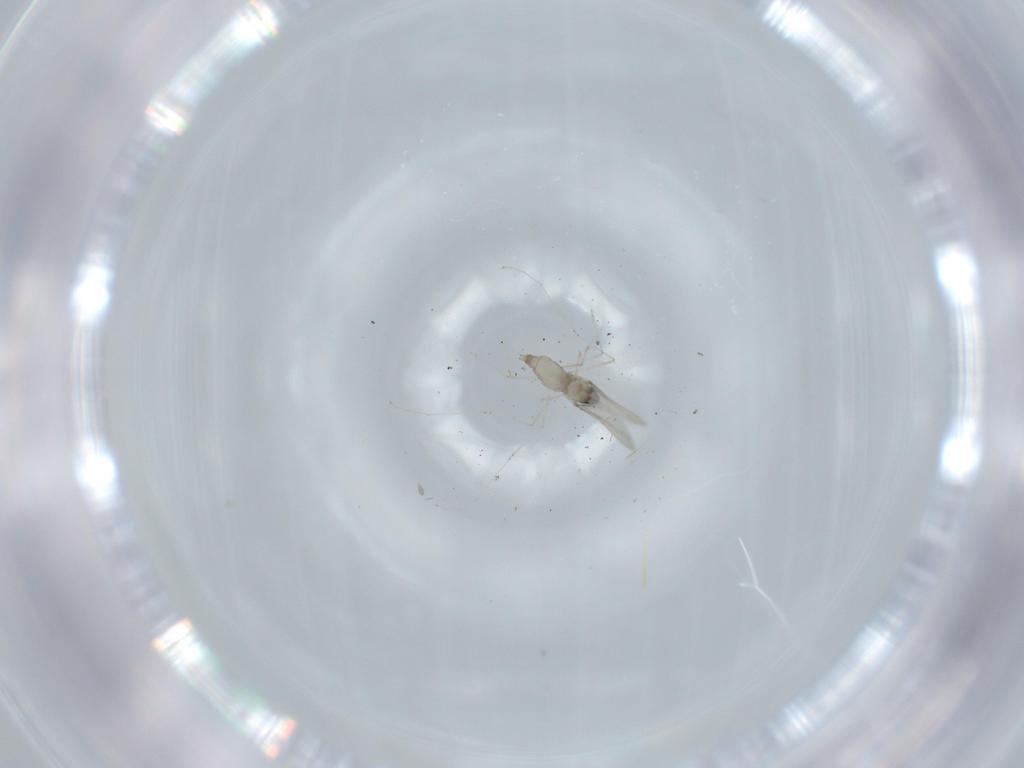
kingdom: Animalia
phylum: Arthropoda
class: Insecta
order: Diptera
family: Cecidomyiidae
